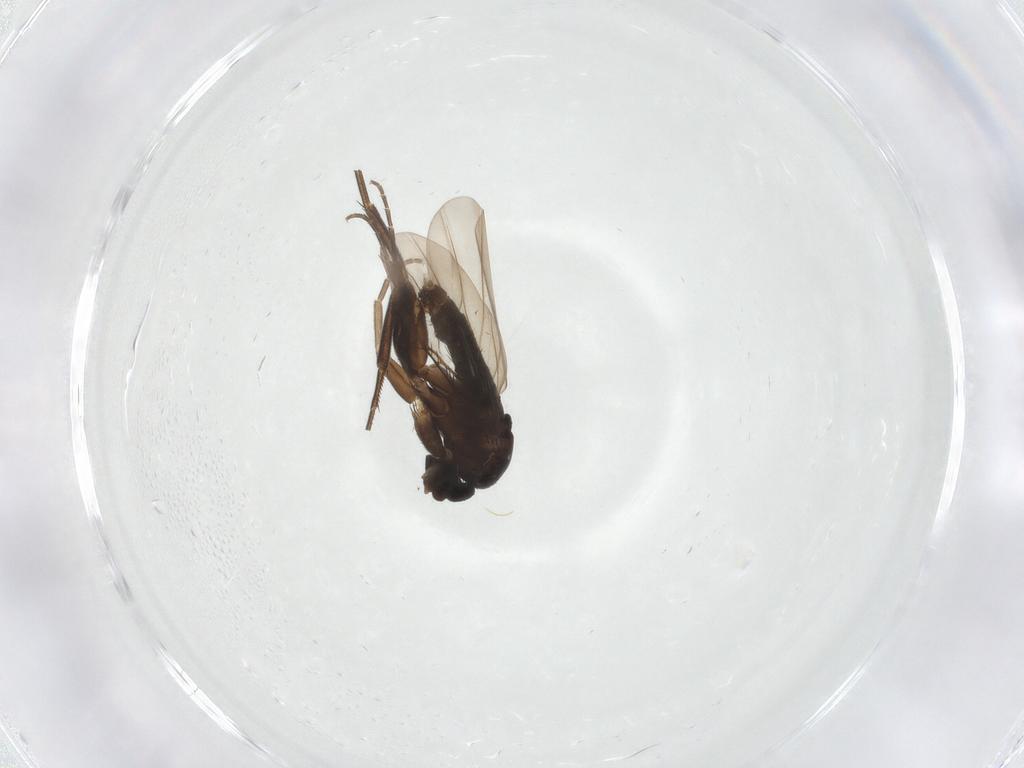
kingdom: Animalia
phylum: Arthropoda
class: Insecta
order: Diptera
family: Phoridae
